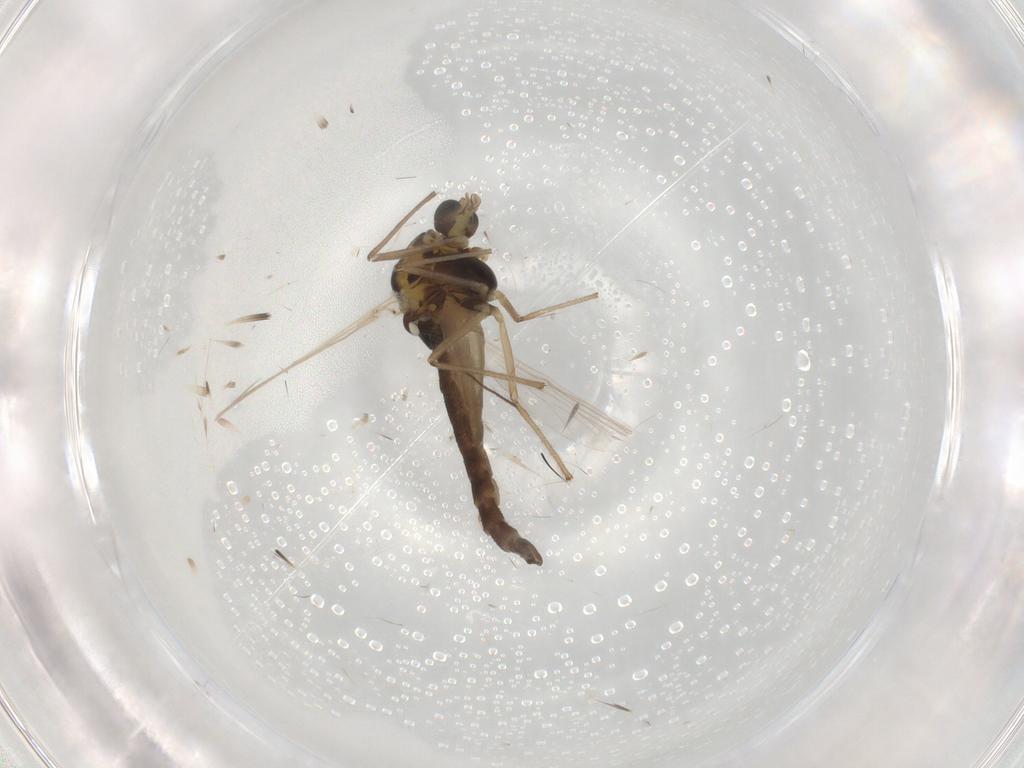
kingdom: Animalia
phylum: Arthropoda
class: Insecta
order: Diptera
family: Chironomidae
